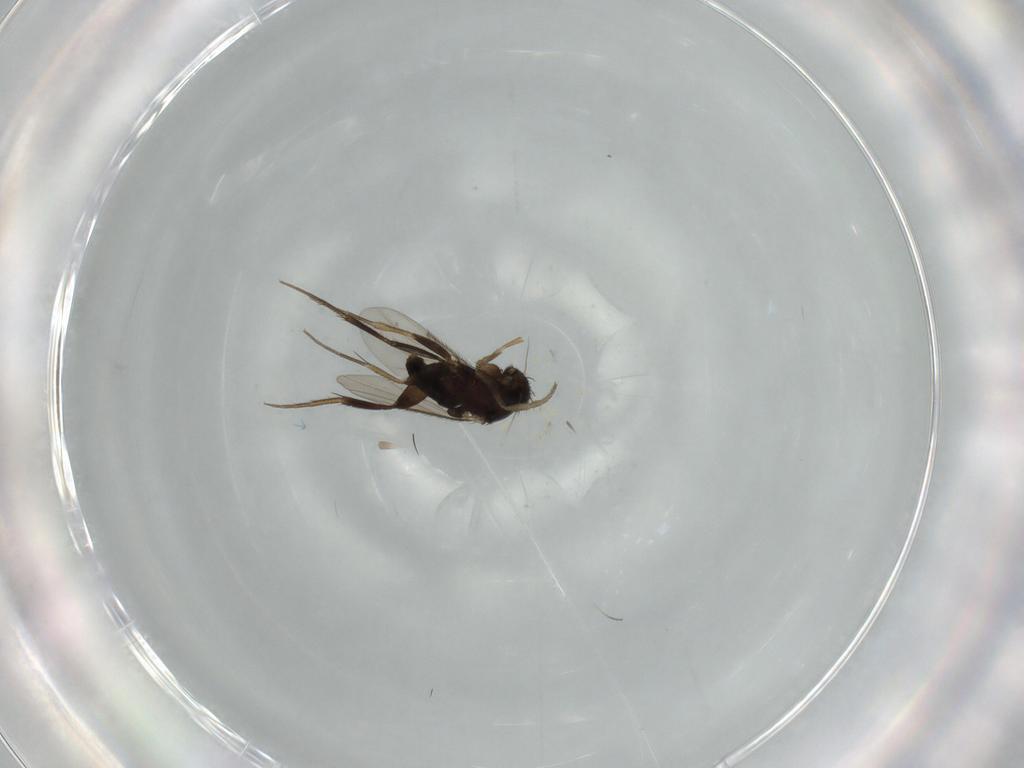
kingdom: Animalia
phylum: Arthropoda
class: Insecta
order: Diptera
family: Phoridae
